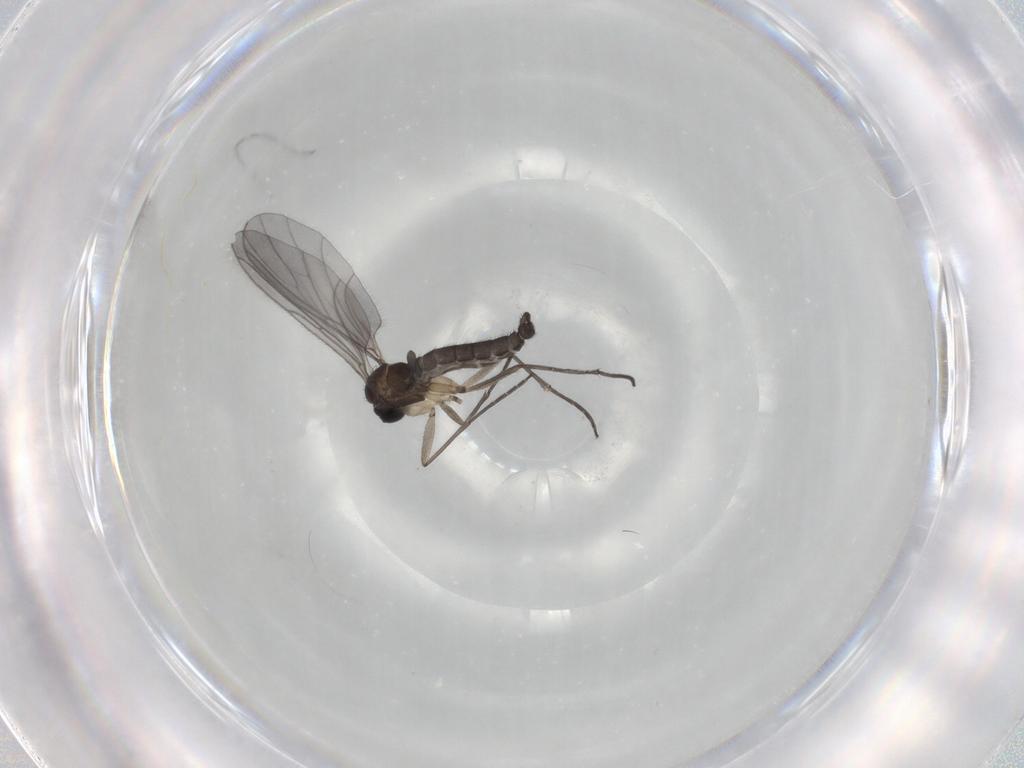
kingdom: Animalia
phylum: Arthropoda
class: Insecta
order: Diptera
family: Sciaridae
